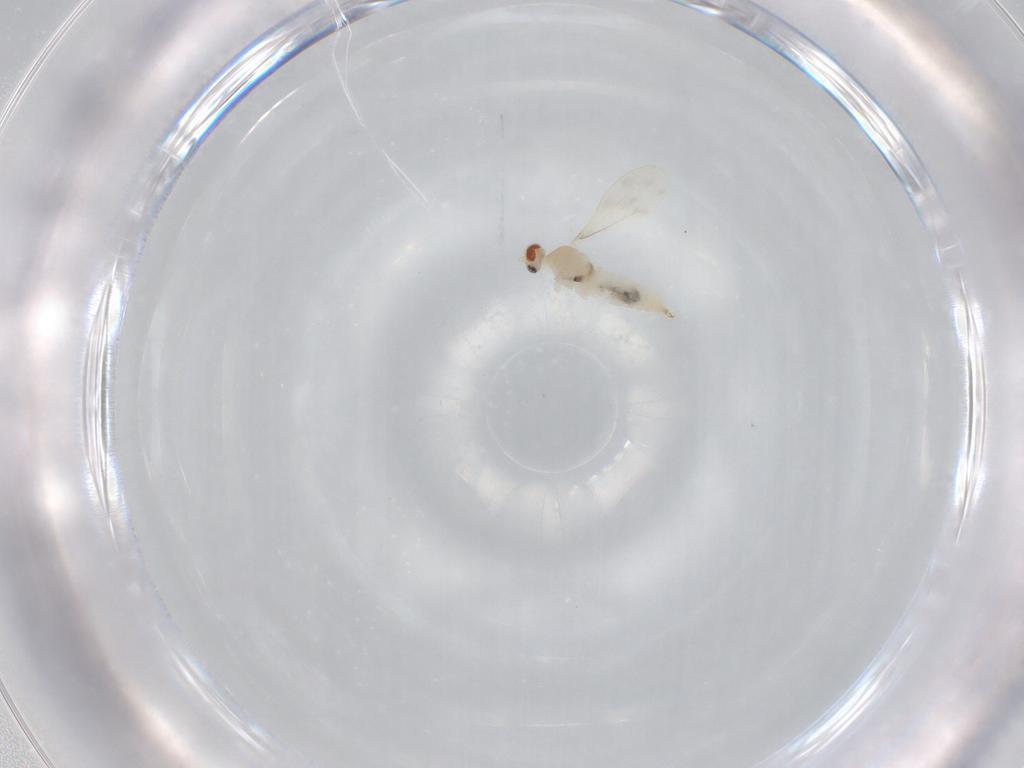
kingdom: Animalia
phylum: Arthropoda
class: Insecta
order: Diptera
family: Cecidomyiidae
